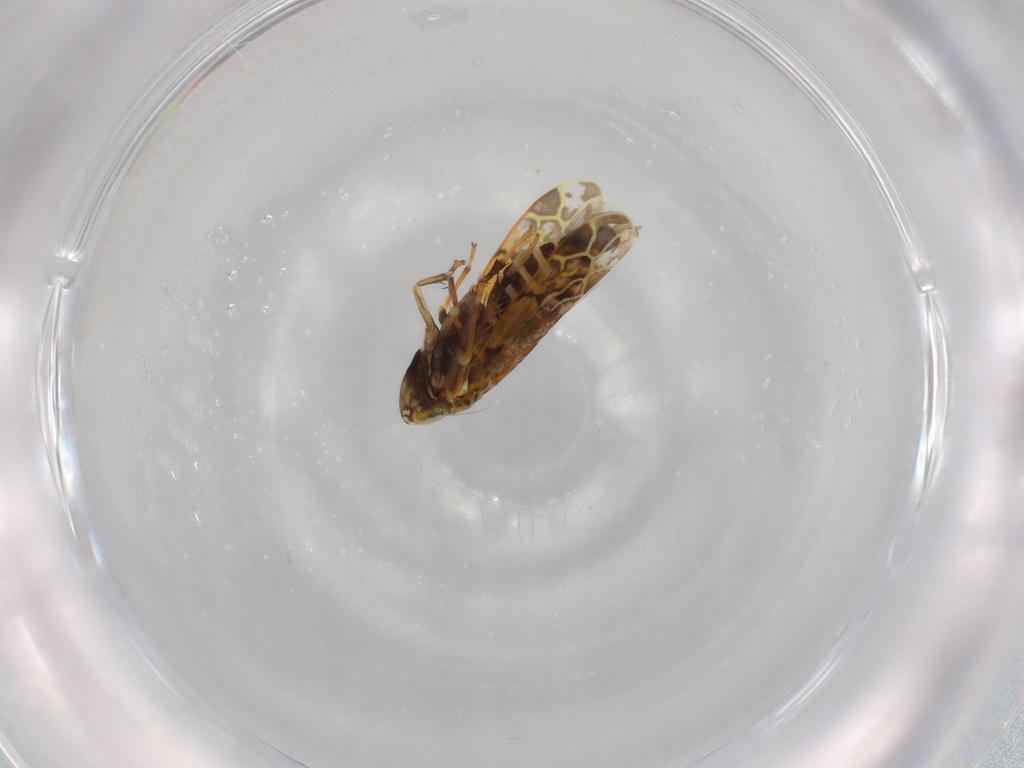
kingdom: Animalia
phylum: Arthropoda
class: Insecta
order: Hemiptera
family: Cicadellidae
